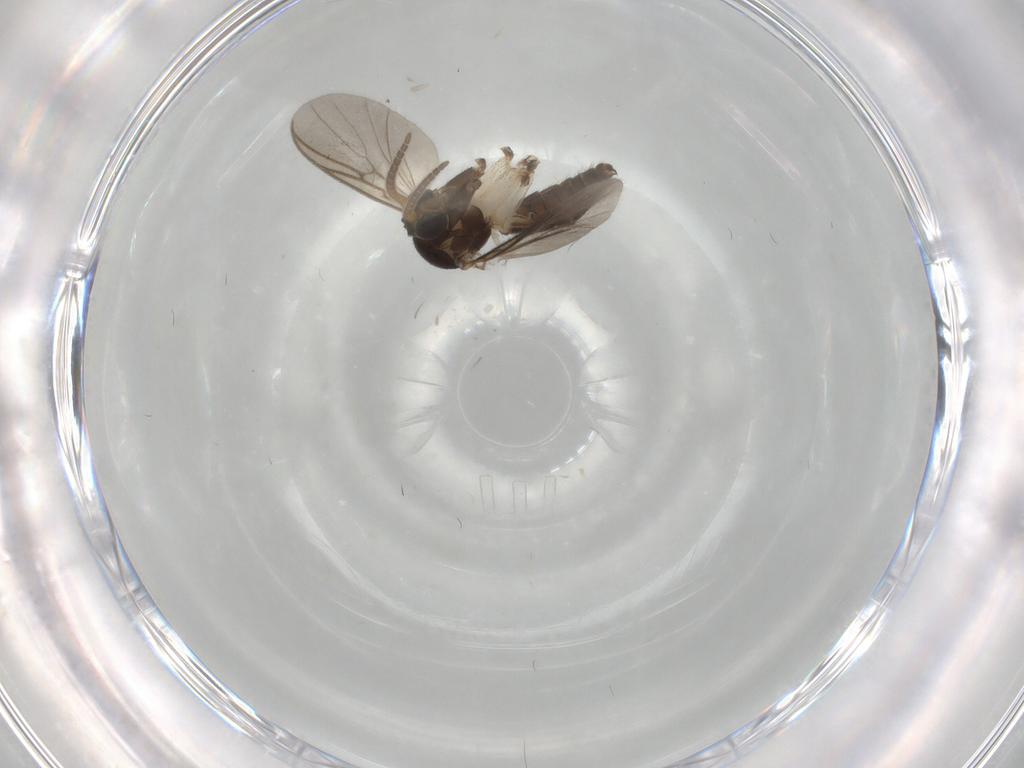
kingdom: Animalia
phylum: Arthropoda
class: Insecta
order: Diptera
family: Mycetophilidae
